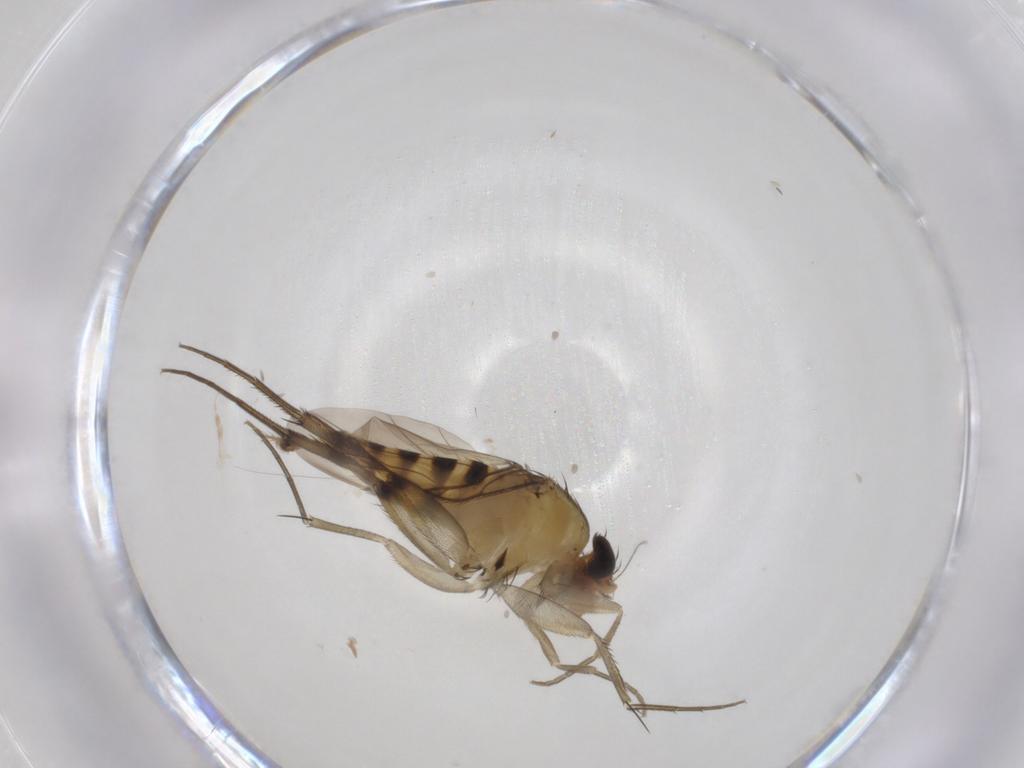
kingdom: Animalia
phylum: Arthropoda
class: Insecta
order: Diptera
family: Phoridae
